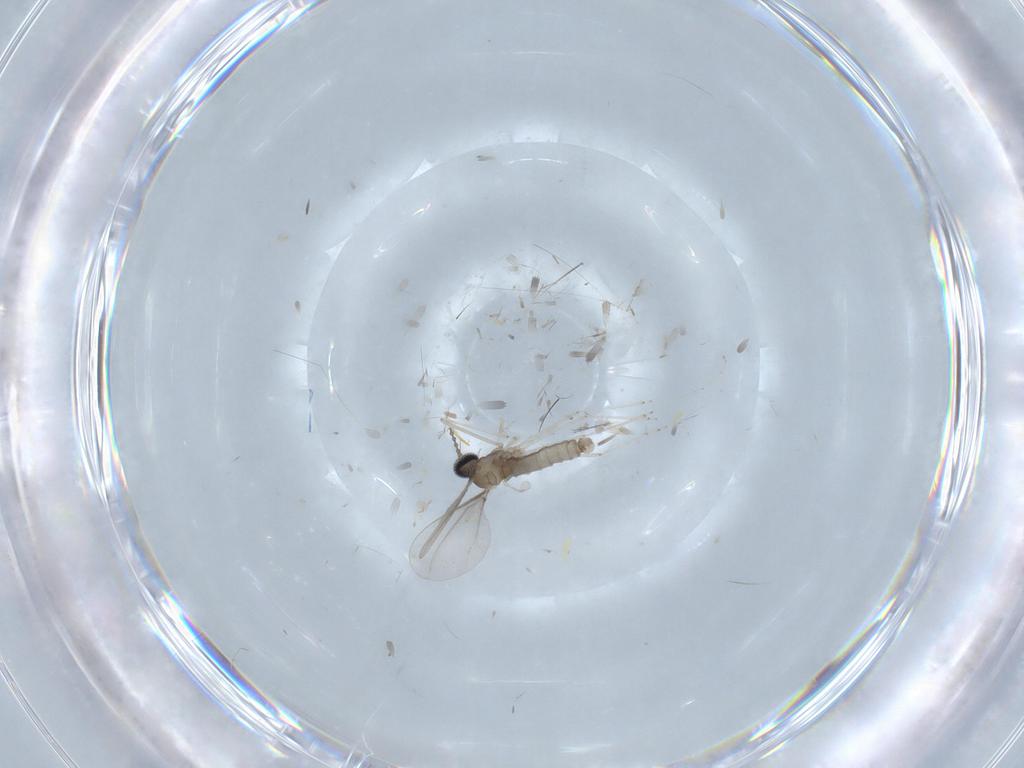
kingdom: Animalia
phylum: Arthropoda
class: Insecta
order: Diptera
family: Cecidomyiidae
